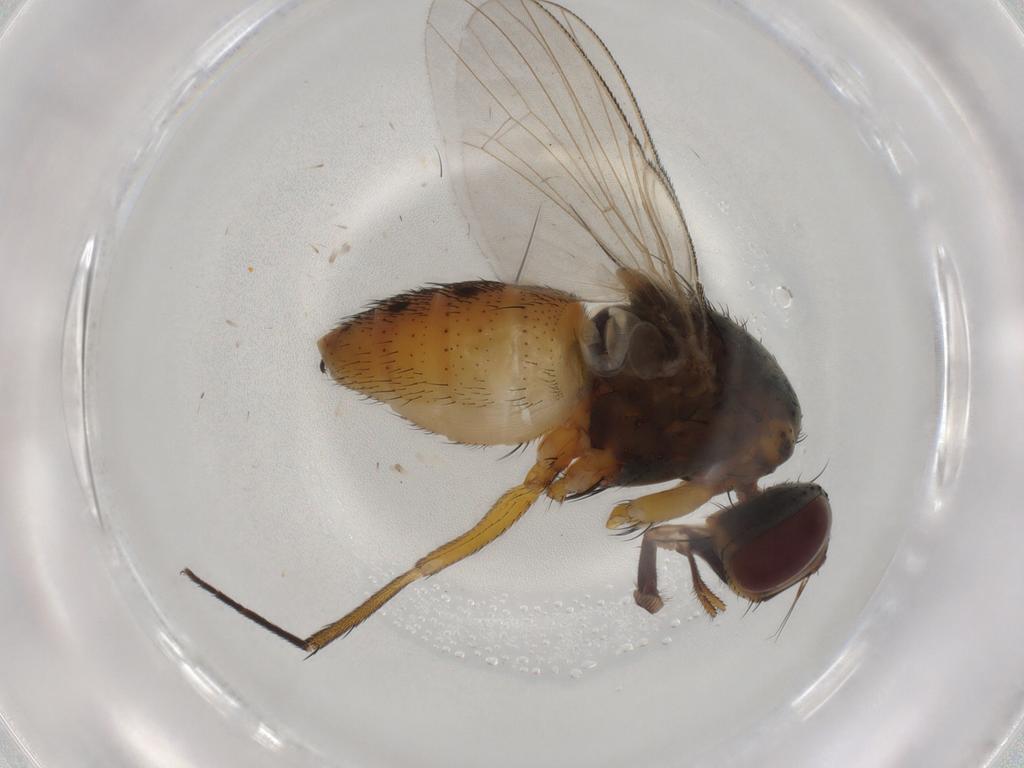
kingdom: Animalia
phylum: Arthropoda
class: Insecta
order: Diptera
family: Muscidae
